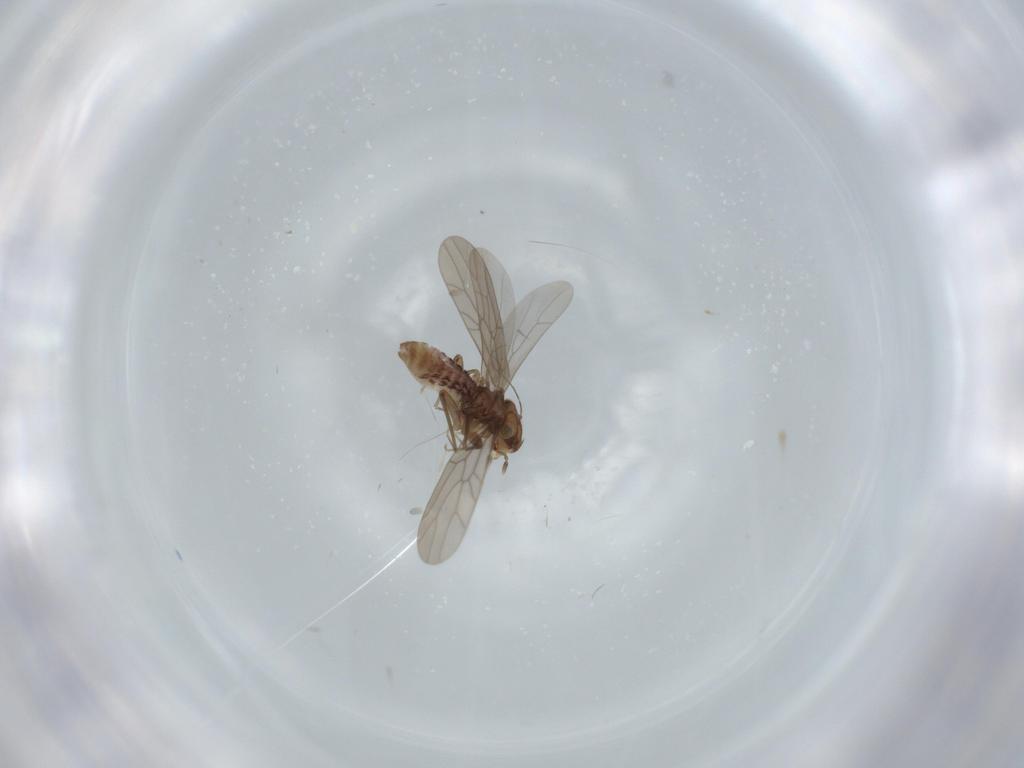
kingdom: Animalia
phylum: Arthropoda
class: Insecta
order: Psocodea
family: Lepidopsocidae
